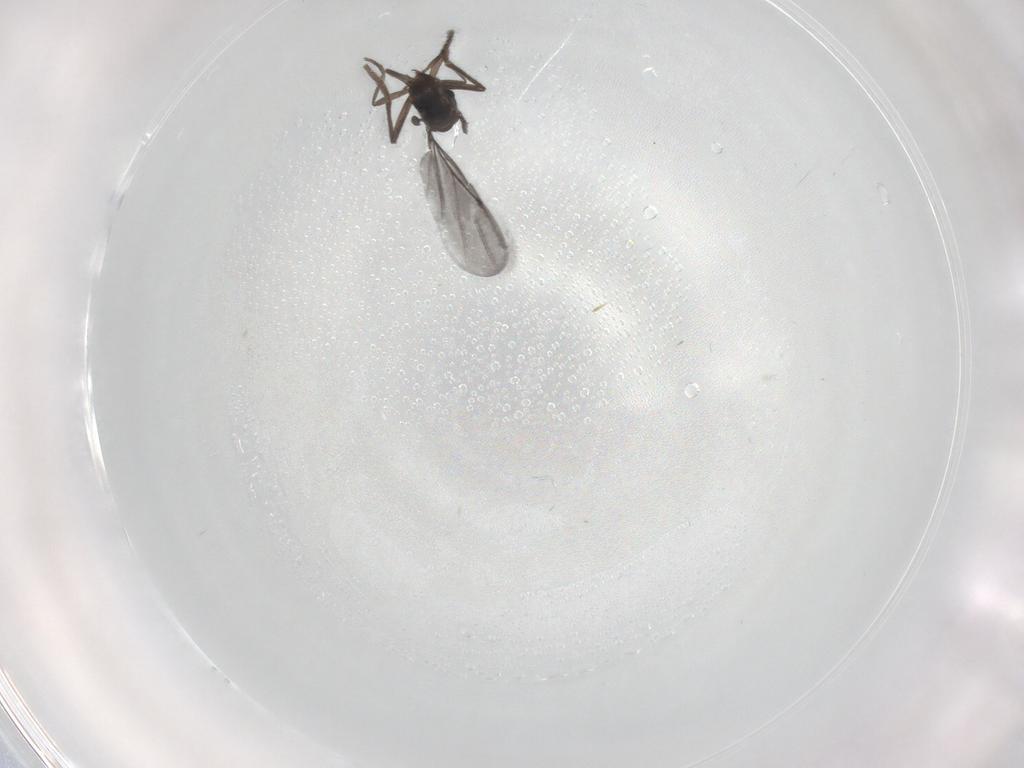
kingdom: Animalia
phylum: Arthropoda
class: Insecta
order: Diptera
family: Phoridae
